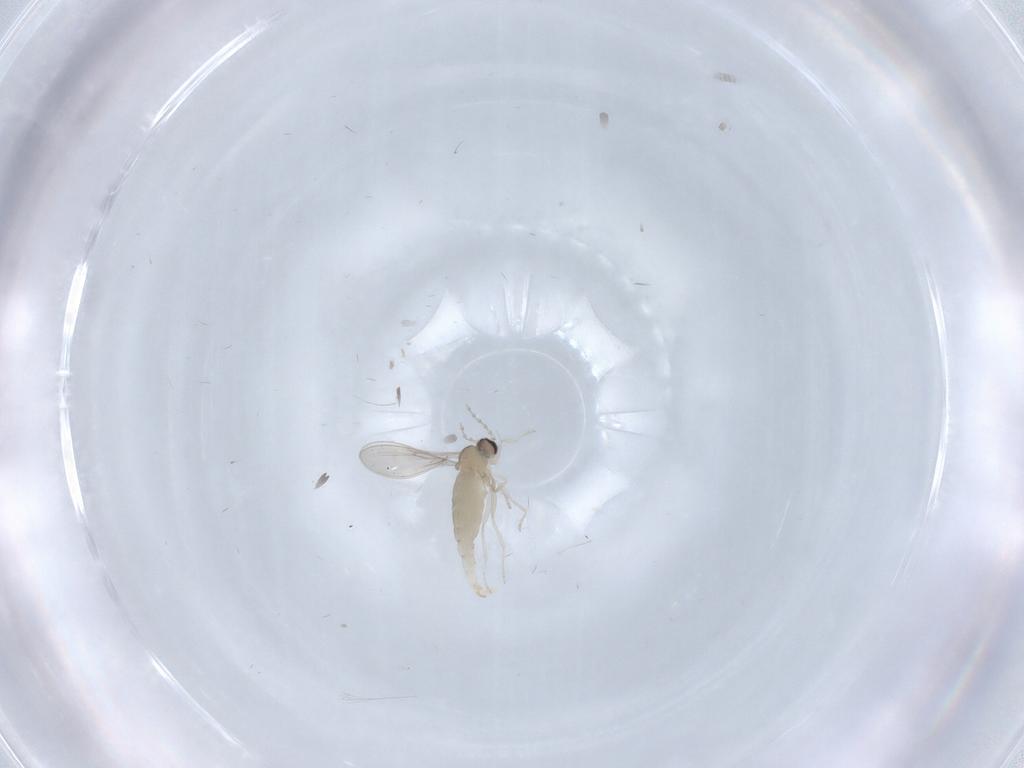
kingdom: Animalia
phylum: Arthropoda
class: Insecta
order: Diptera
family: Cecidomyiidae
